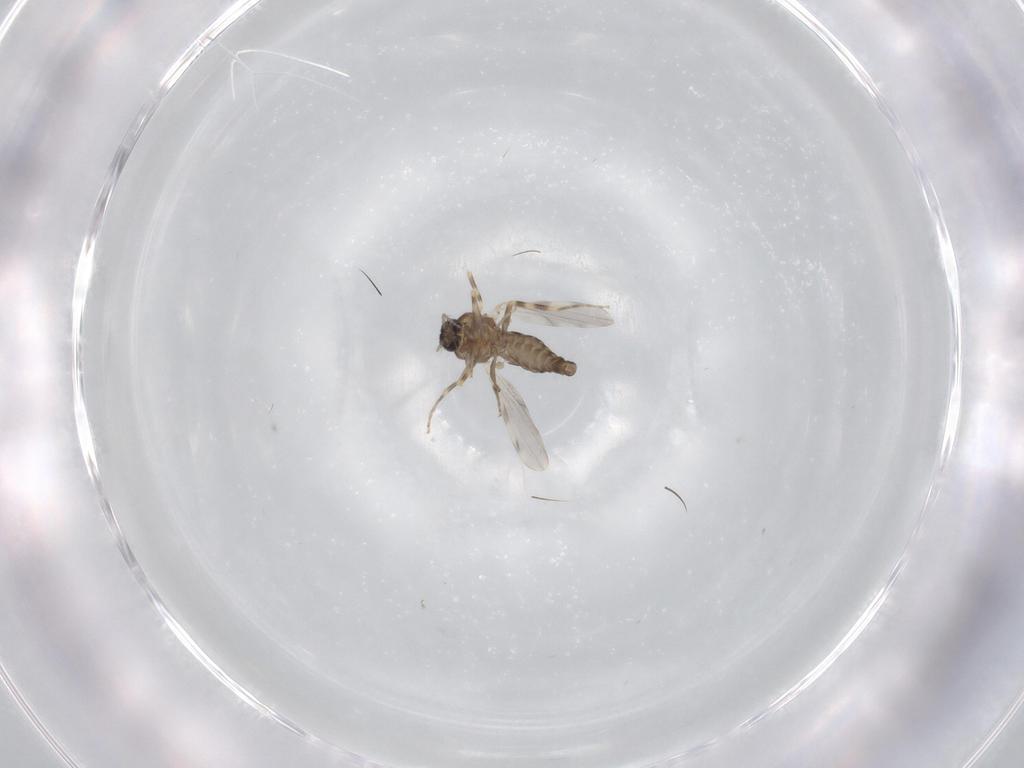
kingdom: Animalia
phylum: Arthropoda
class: Insecta
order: Diptera
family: Ceratopogonidae
